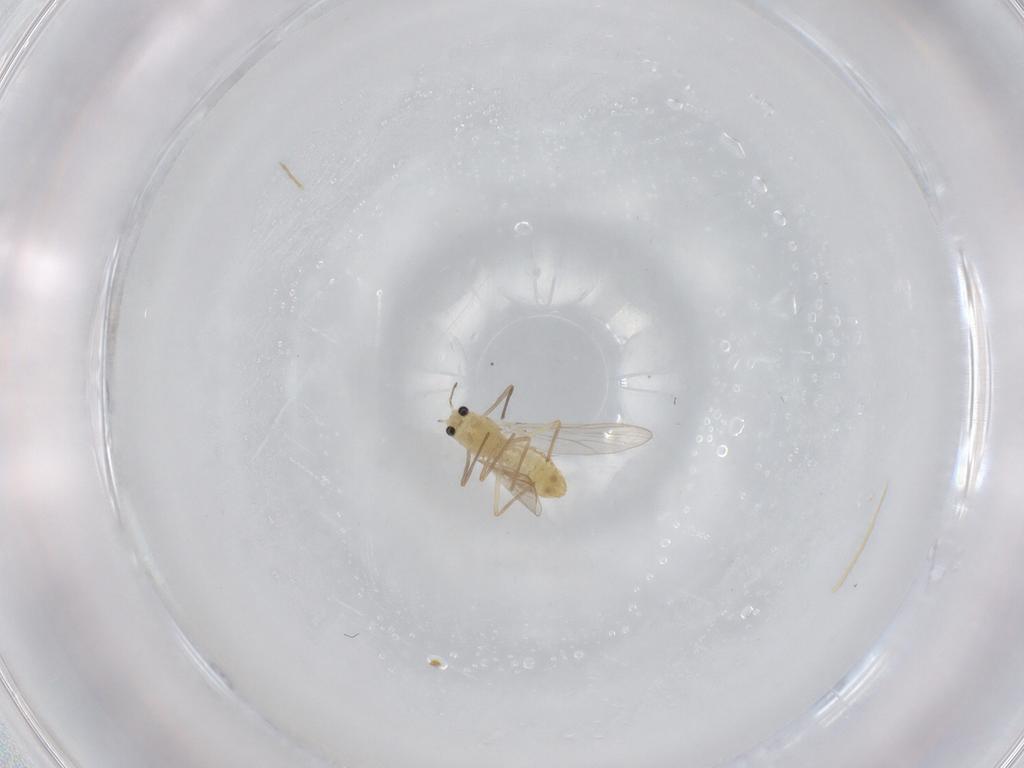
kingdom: Animalia
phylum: Arthropoda
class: Insecta
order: Diptera
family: Chironomidae
